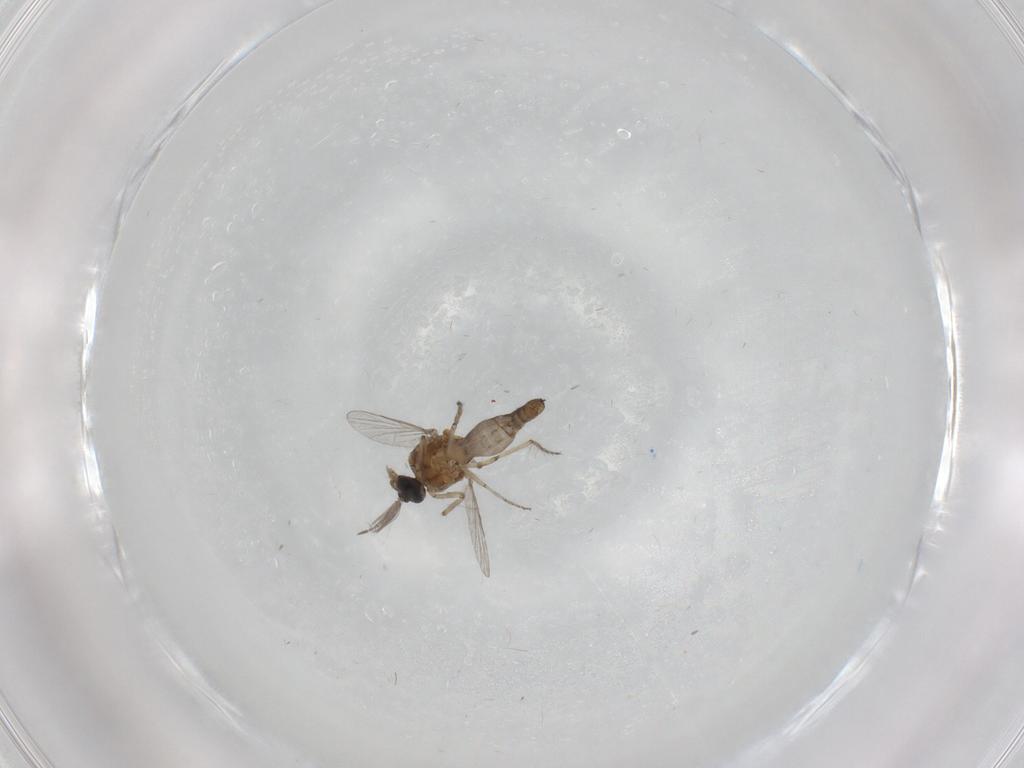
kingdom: Animalia
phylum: Arthropoda
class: Insecta
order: Diptera
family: Ceratopogonidae
